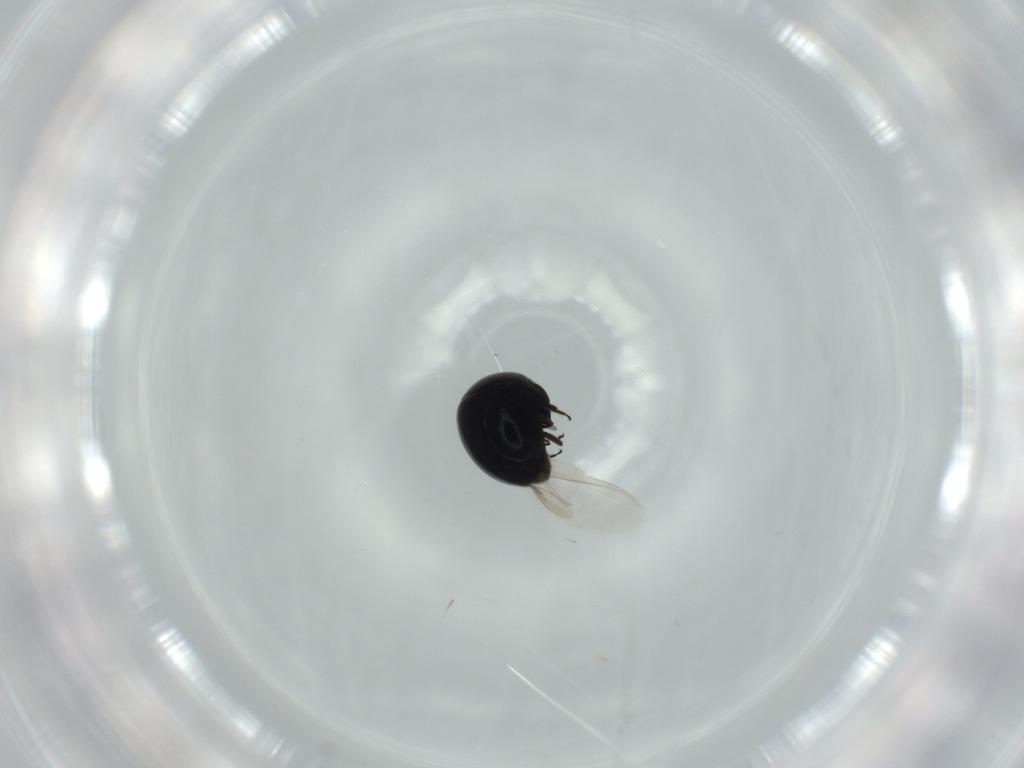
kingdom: Animalia
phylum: Arthropoda
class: Insecta
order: Coleoptera
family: Cybocephalidae
